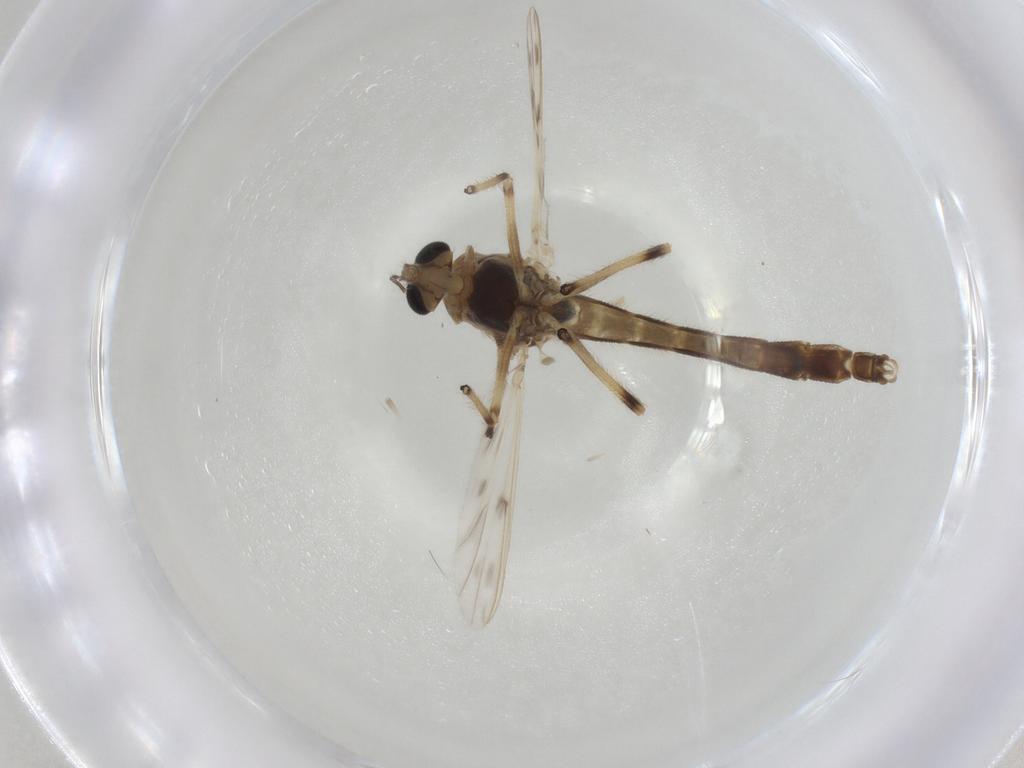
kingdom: Animalia
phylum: Arthropoda
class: Insecta
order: Diptera
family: Chironomidae
